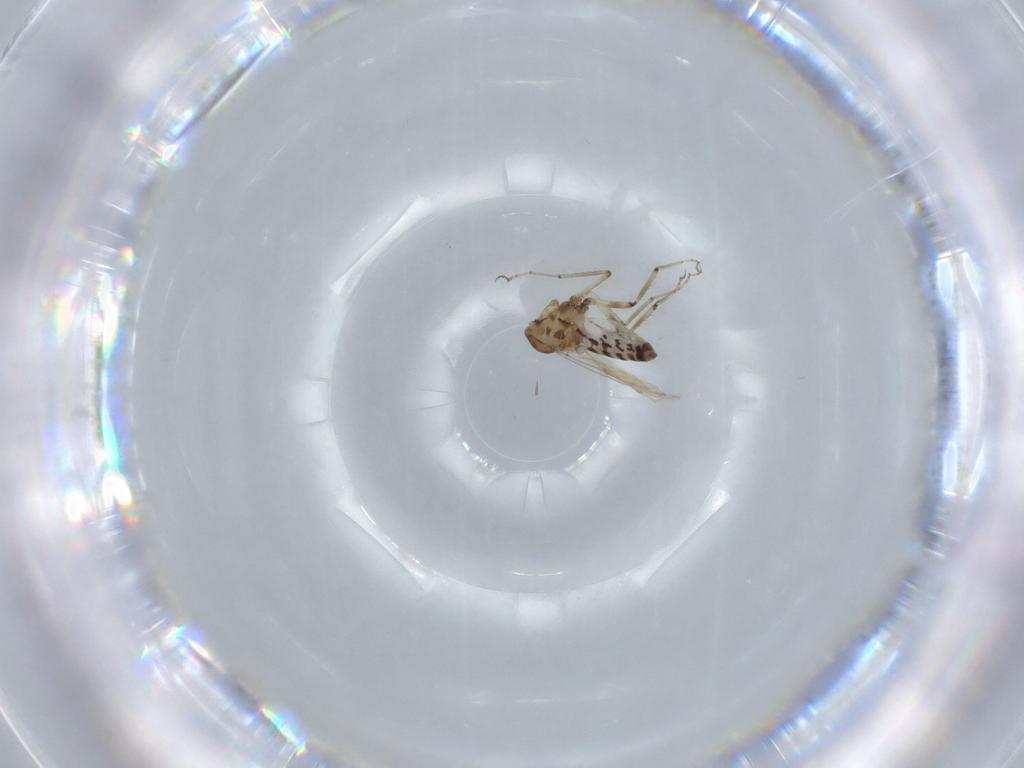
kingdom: Animalia
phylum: Arthropoda
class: Insecta
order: Diptera
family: Ceratopogonidae
